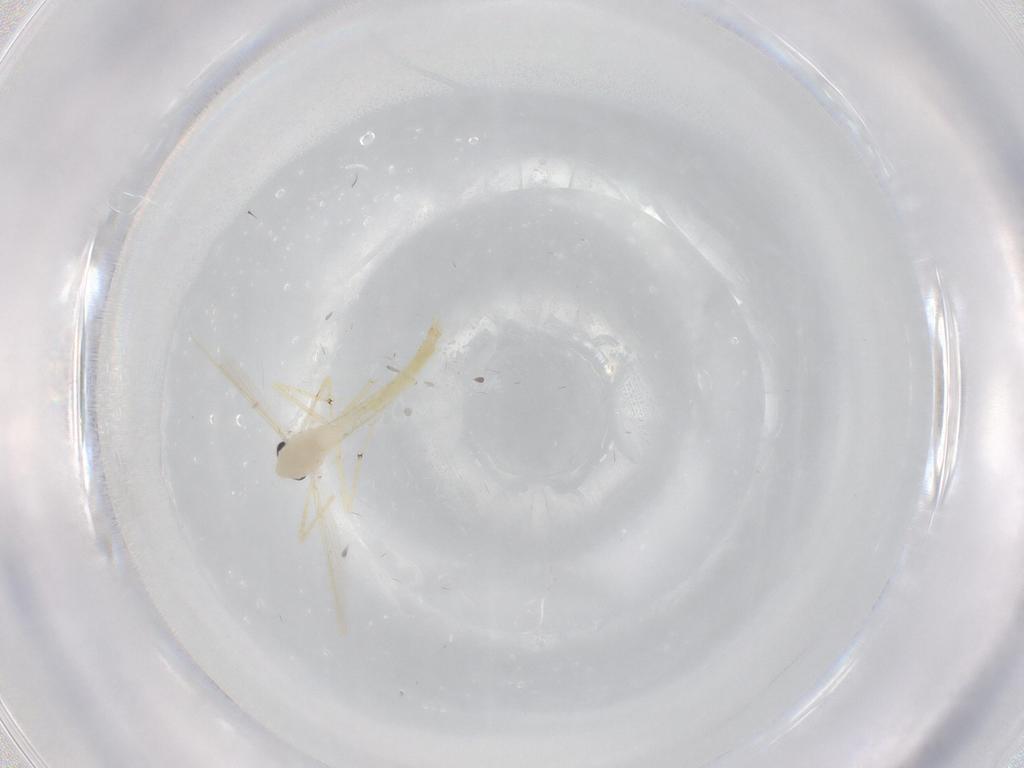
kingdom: Animalia
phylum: Arthropoda
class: Insecta
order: Diptera
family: Chironomidae
